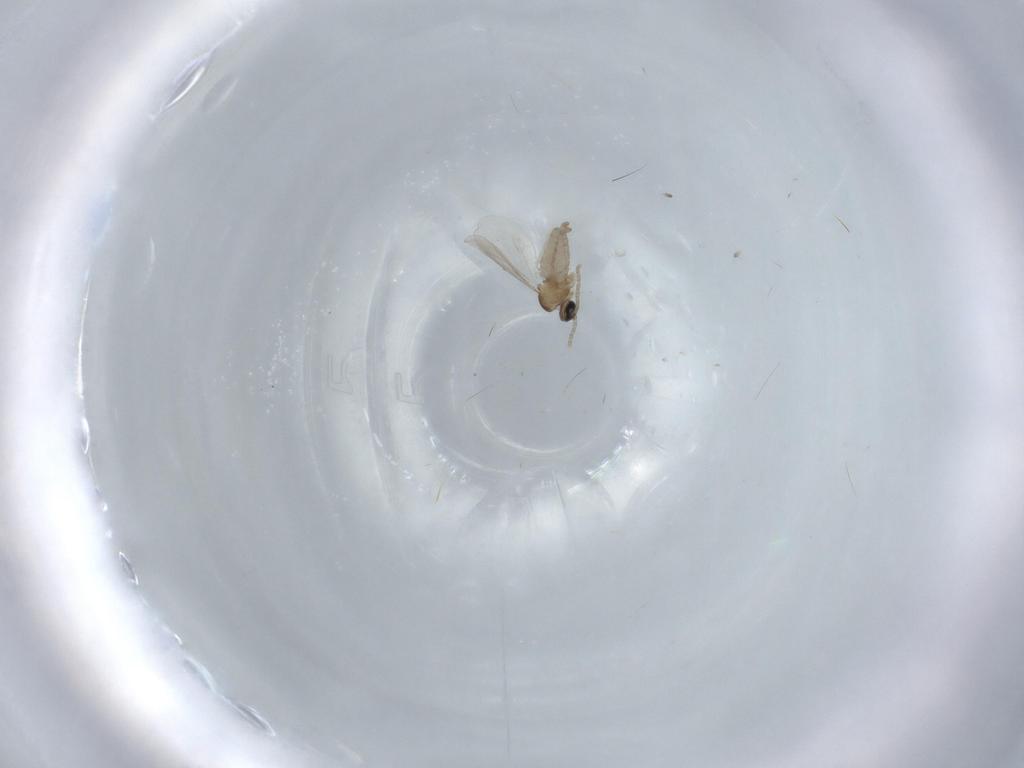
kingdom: Animalia
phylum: Arthropoda
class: Insecta
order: Diptera
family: Cecidomyiidae
